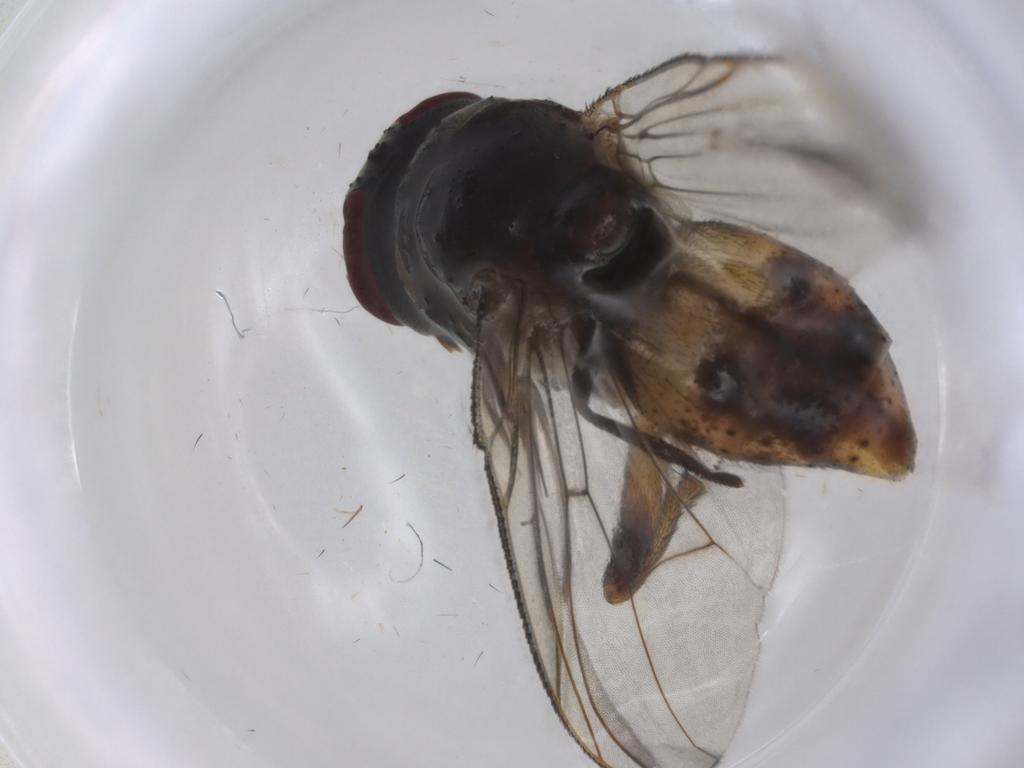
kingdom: Animalia
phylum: Arthropoda
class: Insecta
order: Diptera
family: Muscidae
